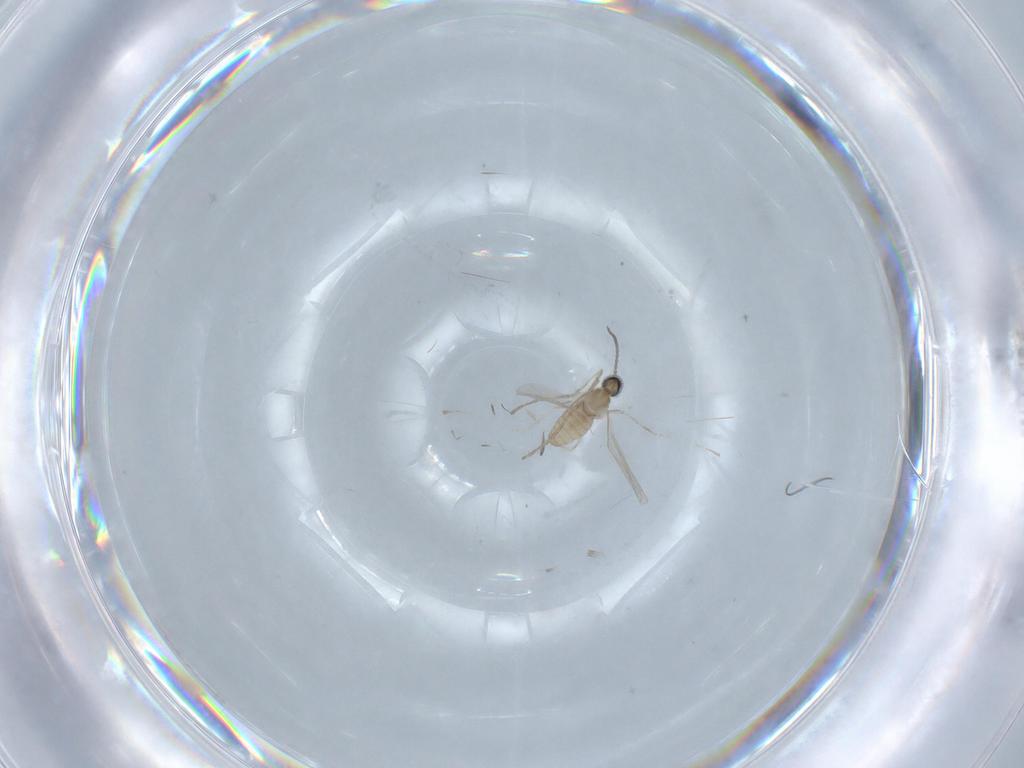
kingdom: Animalia
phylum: Arthropoda
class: Insecta
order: Diptera
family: Cecidomyiidae
